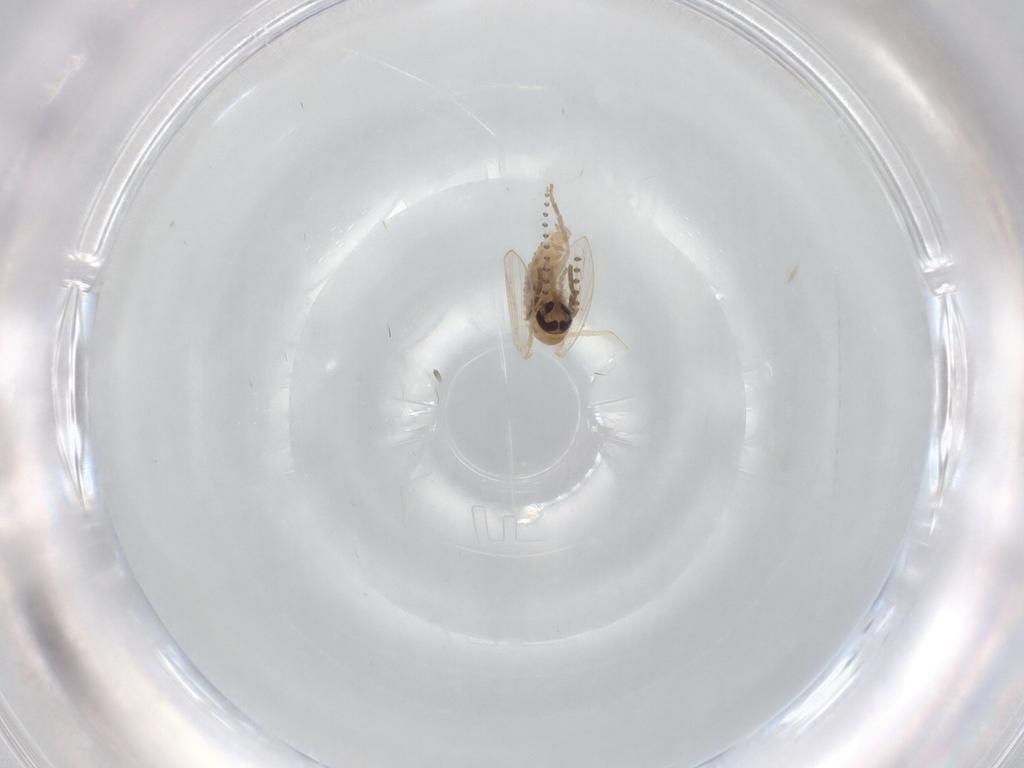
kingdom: Animalia
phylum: Arthropoda
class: Insecta
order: Diptera
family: Psychodidae
